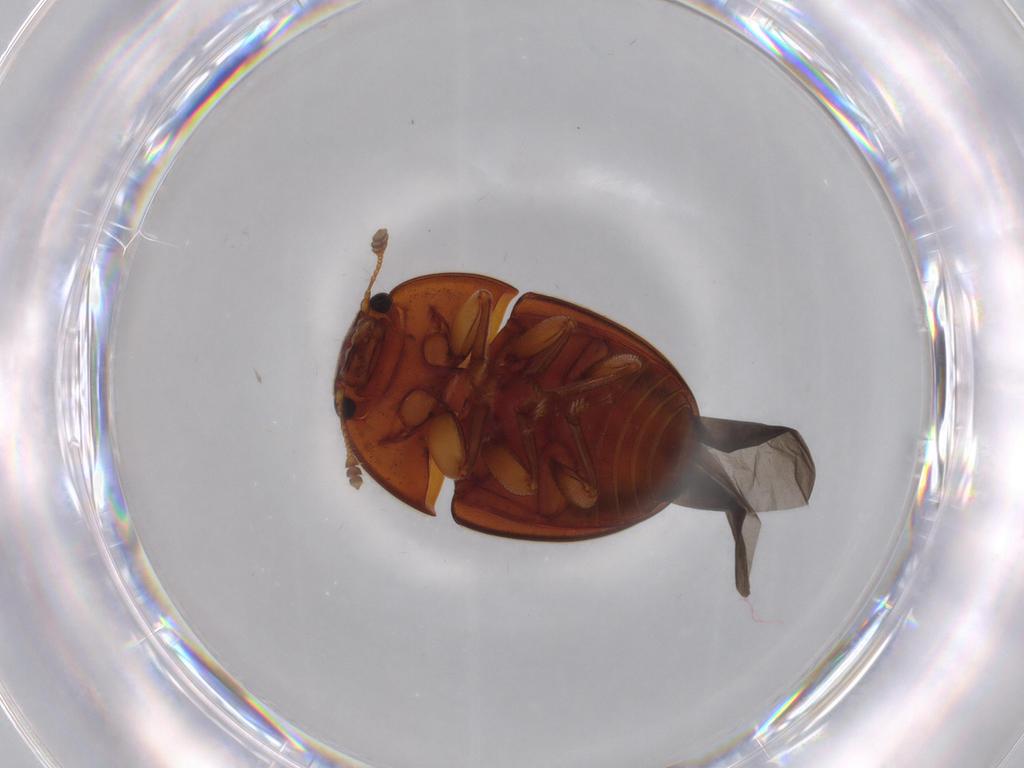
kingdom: Animalia
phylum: Arthropoda
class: Insecta
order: Coleoptera
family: Nitidulidae
